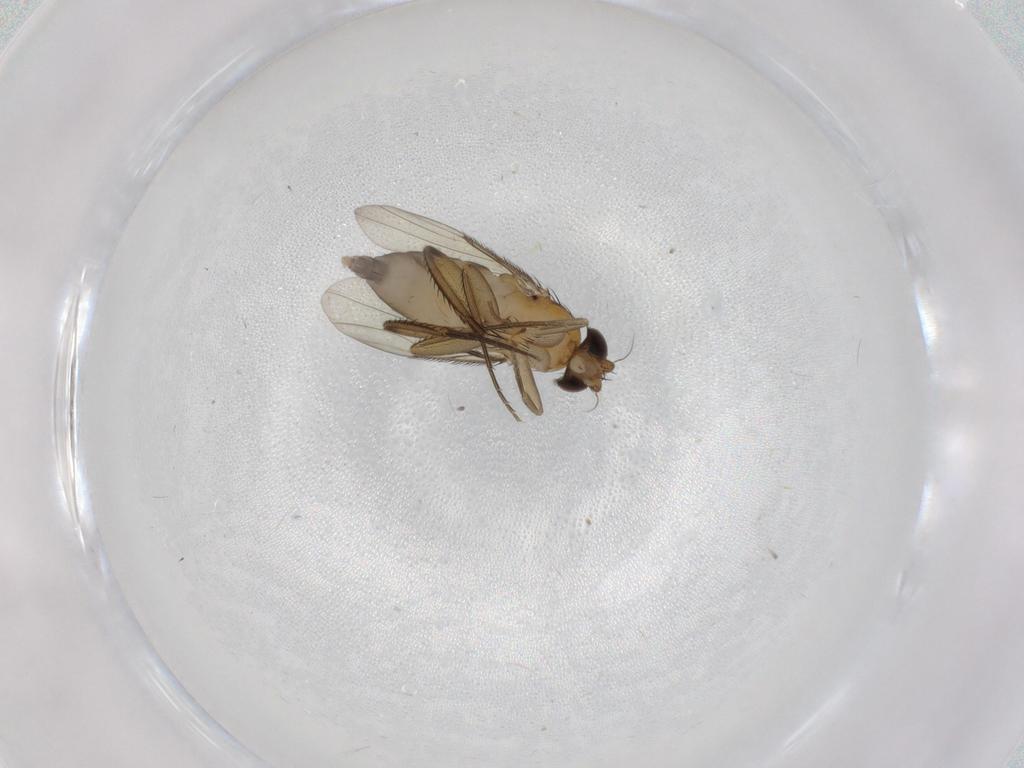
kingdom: Animalia
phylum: Arthropoda
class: Insecta
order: Diptera
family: Phoridae
